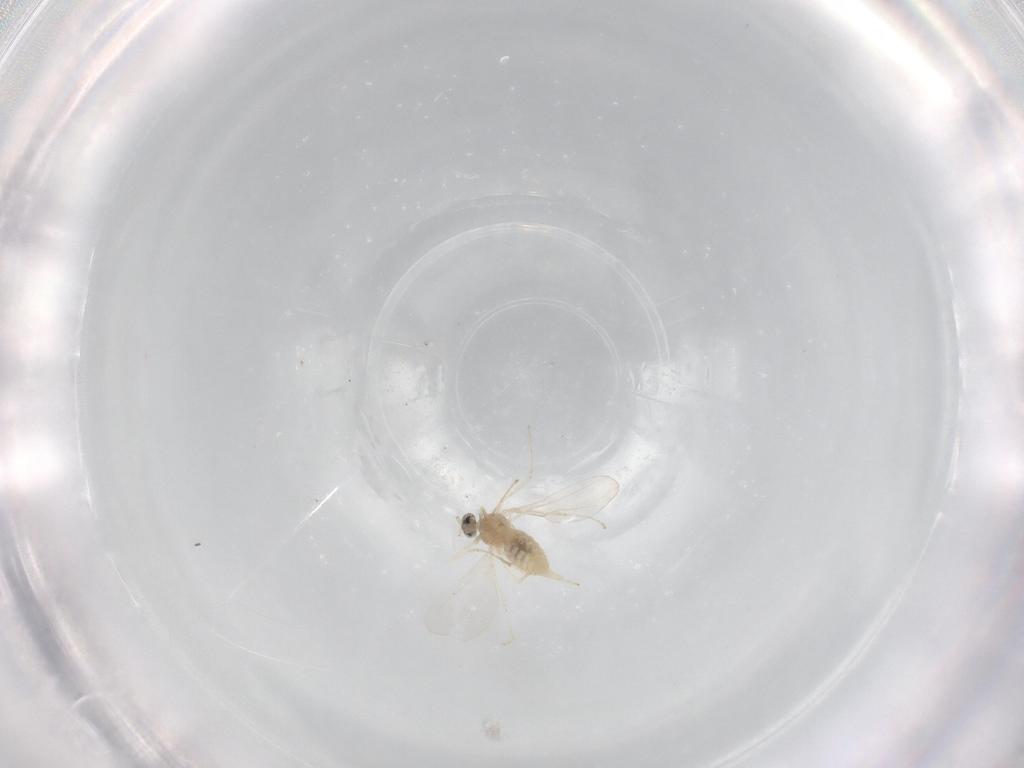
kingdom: Animalia
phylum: Arthropoda
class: Insecta
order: Diptera
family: Cecidomyiidae
